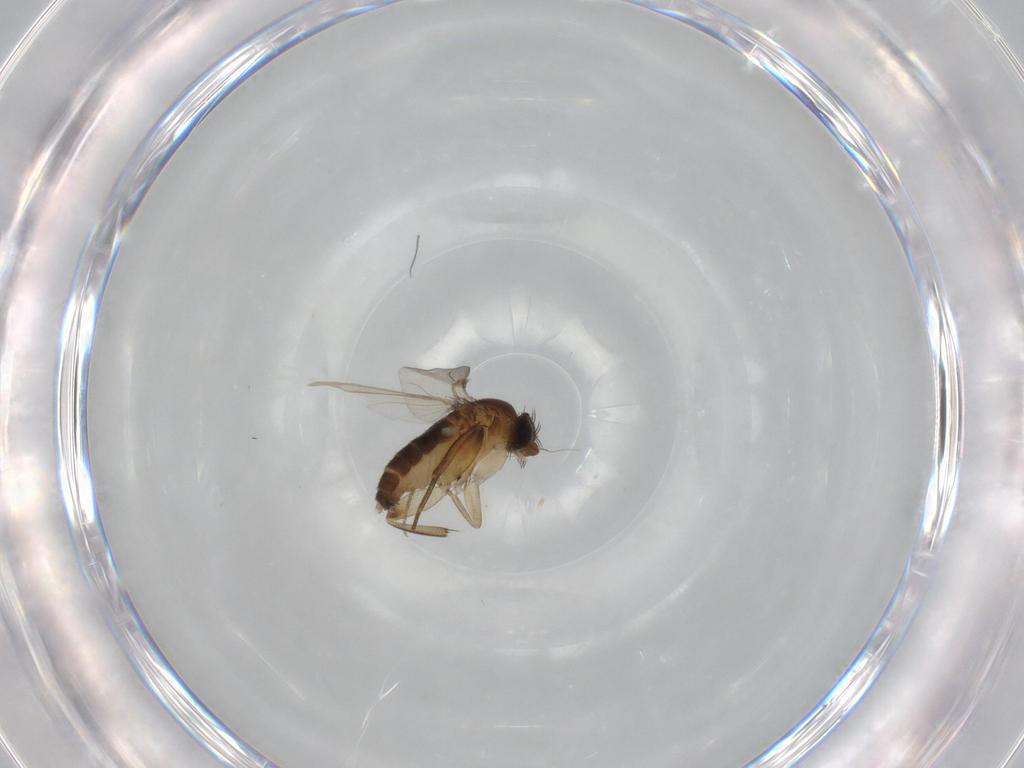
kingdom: Animalia
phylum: Arthropoda
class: Insecta
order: Diptera
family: Phoridae
